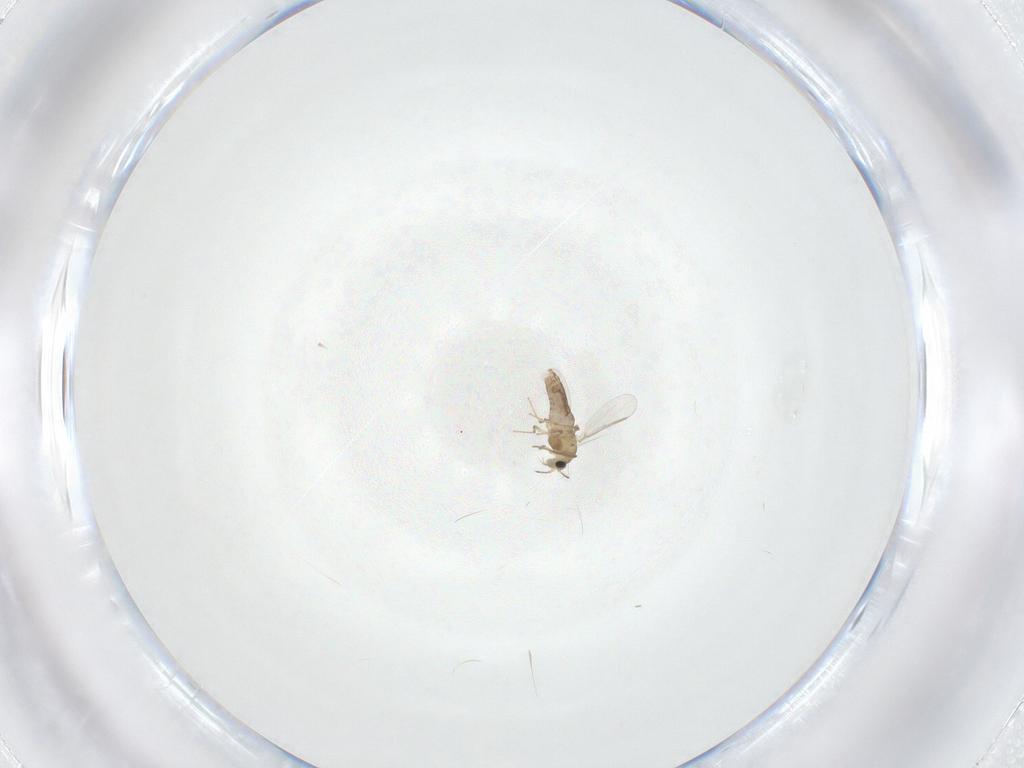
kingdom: Animalia
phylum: Arthropoda
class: Insecta
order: Diptera
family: Chironomidae
